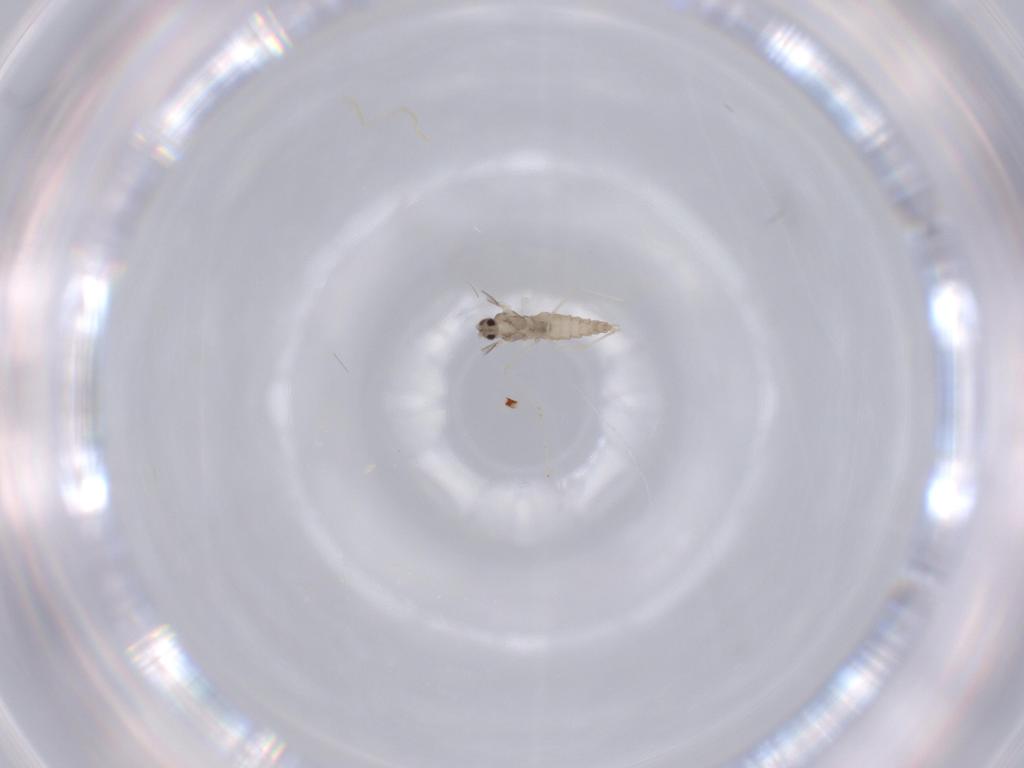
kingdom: Animalia
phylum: Arthropoda
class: Insecta
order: Diptera
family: Cecidomyiidae
